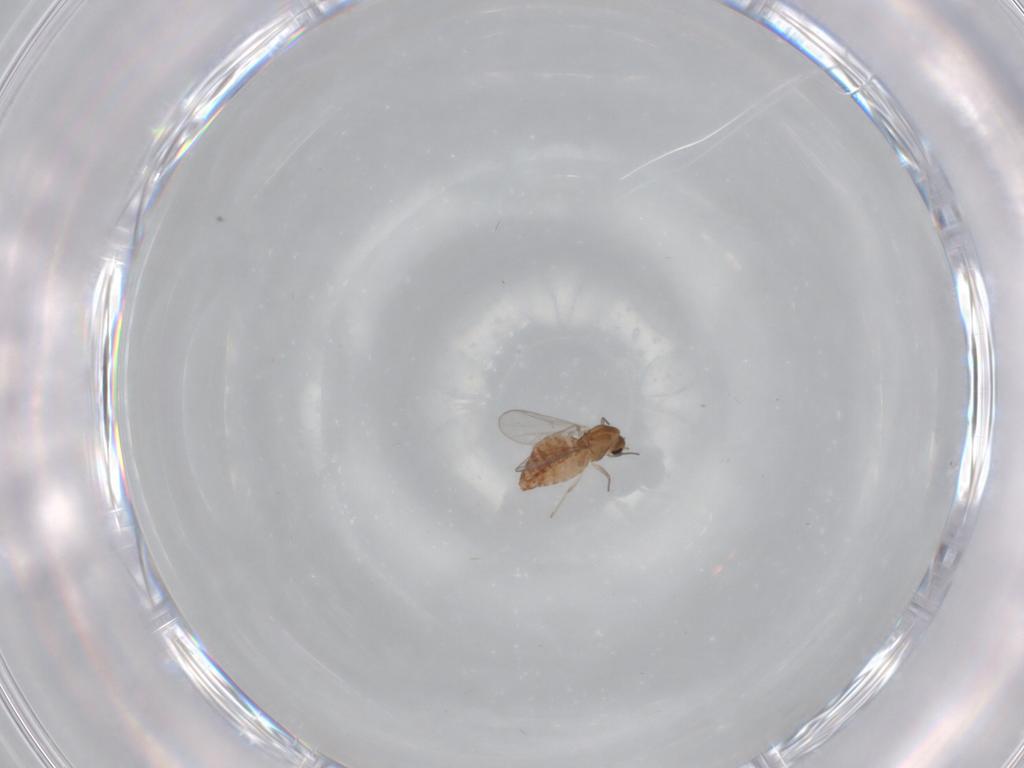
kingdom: Animalia
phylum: Arthropoda
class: Insecta
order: Diptera
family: Chironomidae
